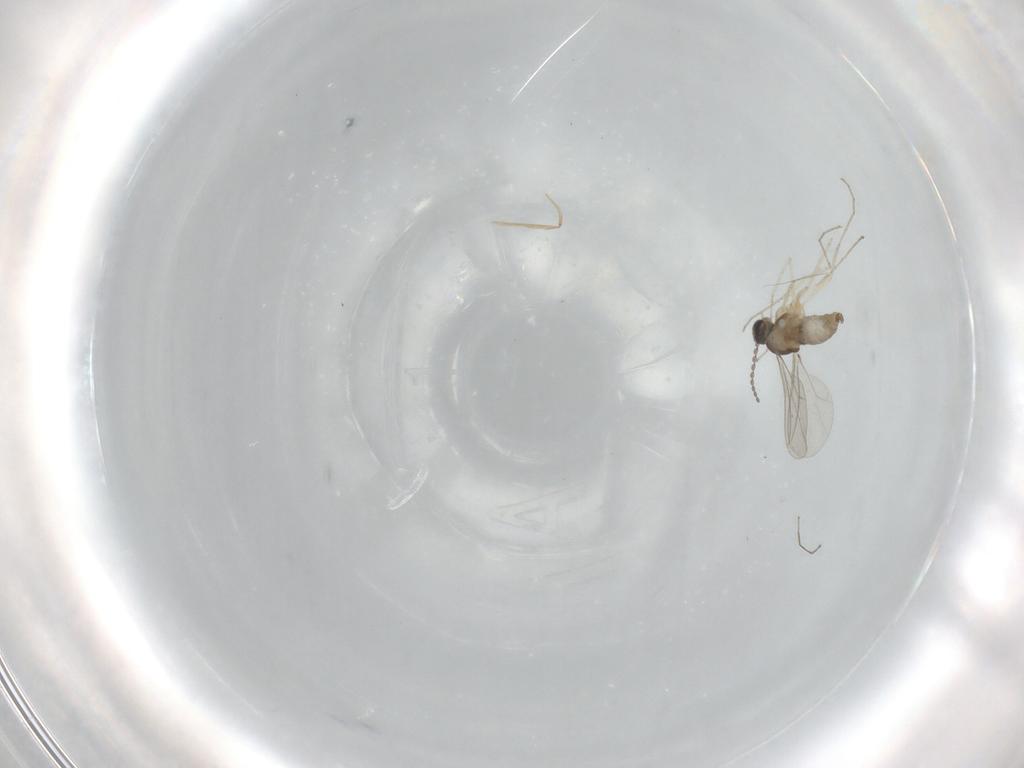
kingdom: Animalia
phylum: Arthropoda
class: Insecta
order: Diptera
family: Cecidomyiidae
